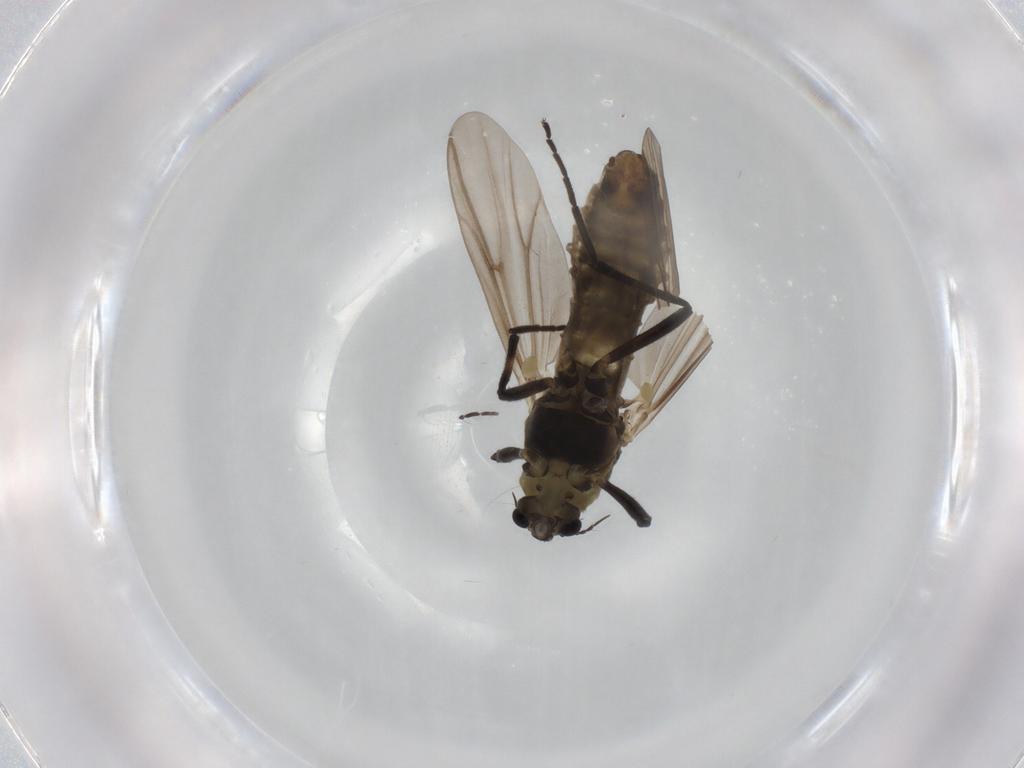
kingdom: Animalia
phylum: Arthropoda
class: Insecta
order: Diptera
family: Chironomidae
